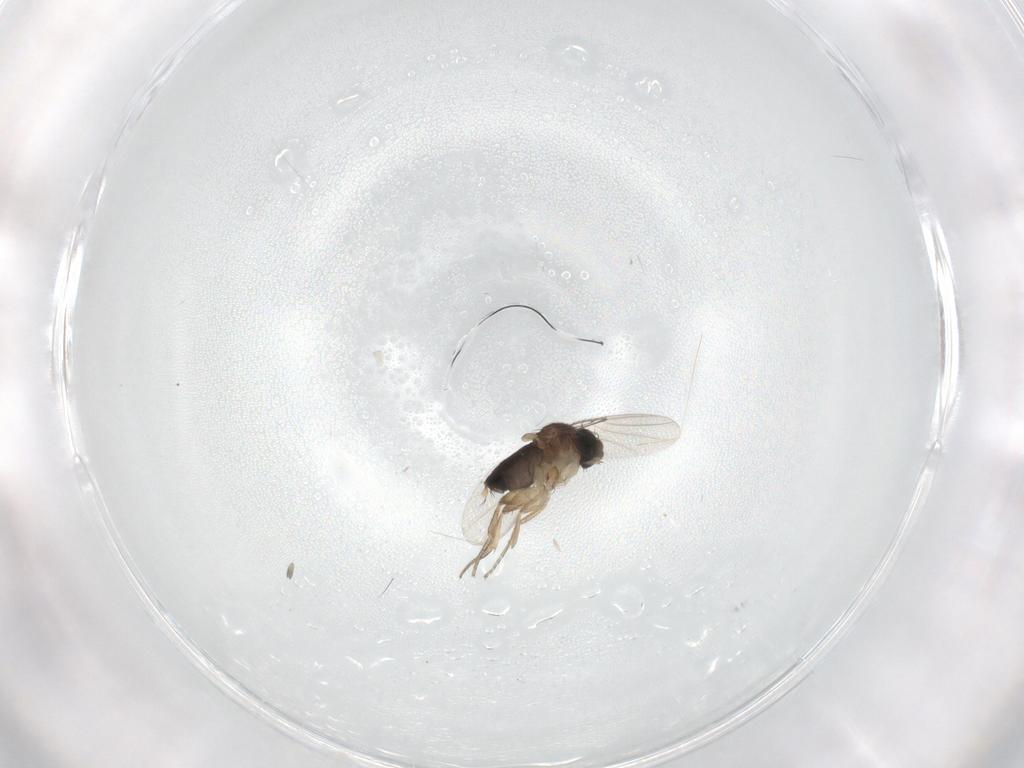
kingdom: Animalia
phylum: Arthropoda
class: Insecta
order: Diptera
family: Phoridae
